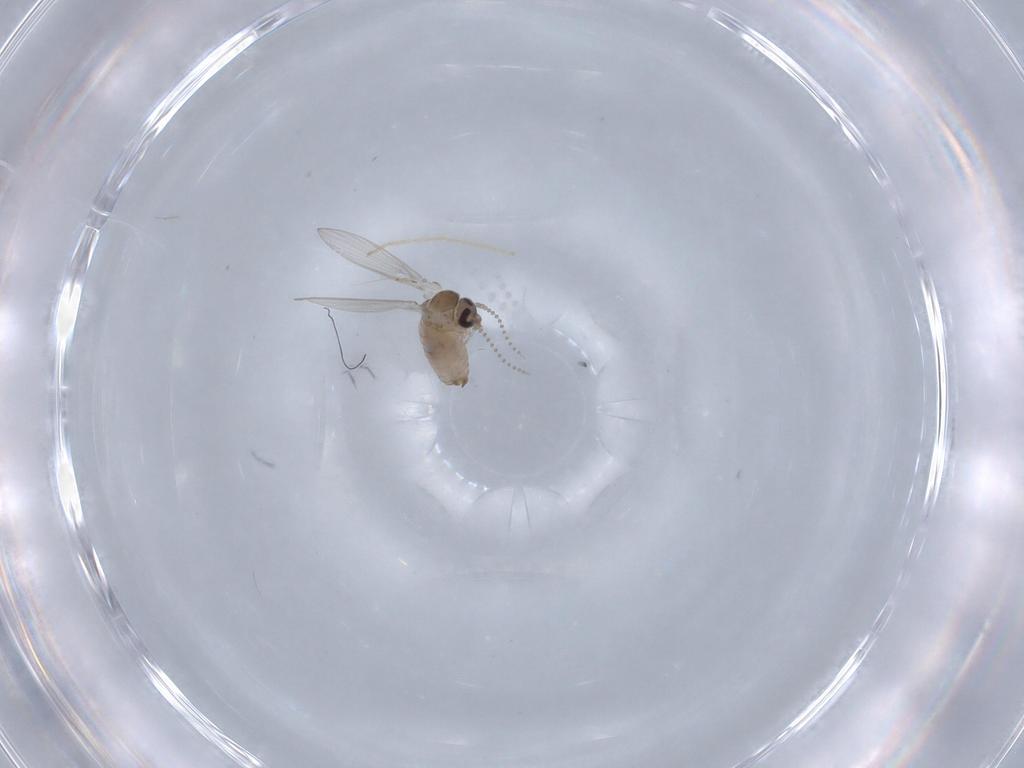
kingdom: Animalia
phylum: Arthropoda
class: Insecta
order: Diptera
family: Psychodidae
